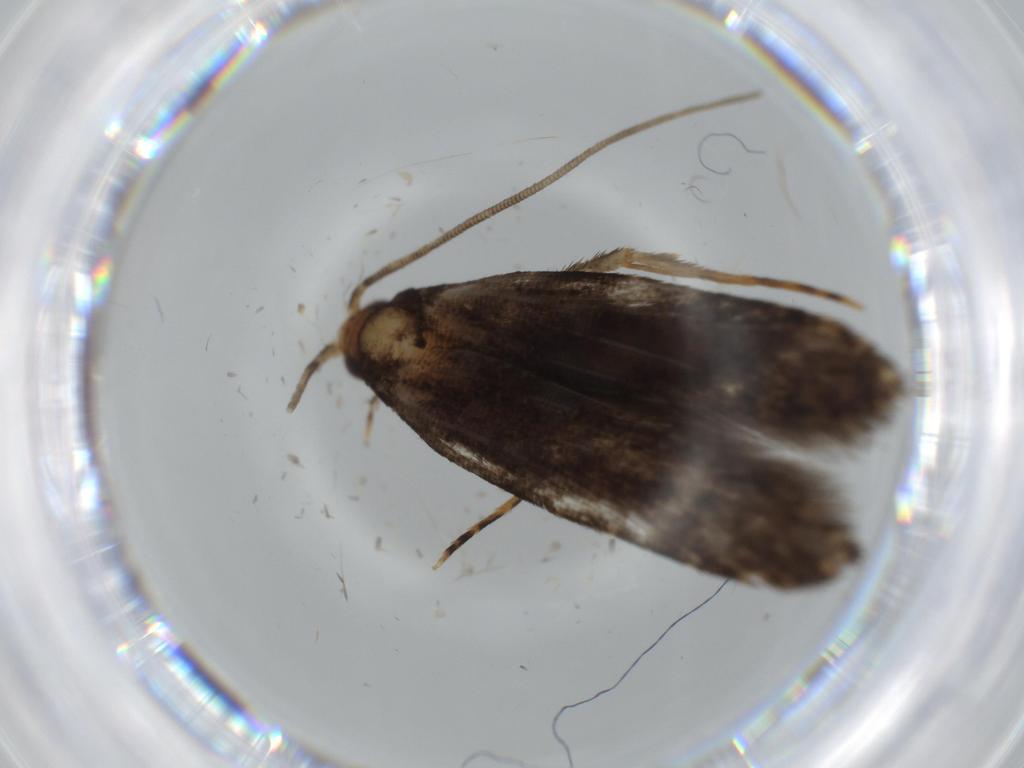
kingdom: Animalia
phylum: Arthropoda
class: Insecta
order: Lepidoptera
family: Tineidae
